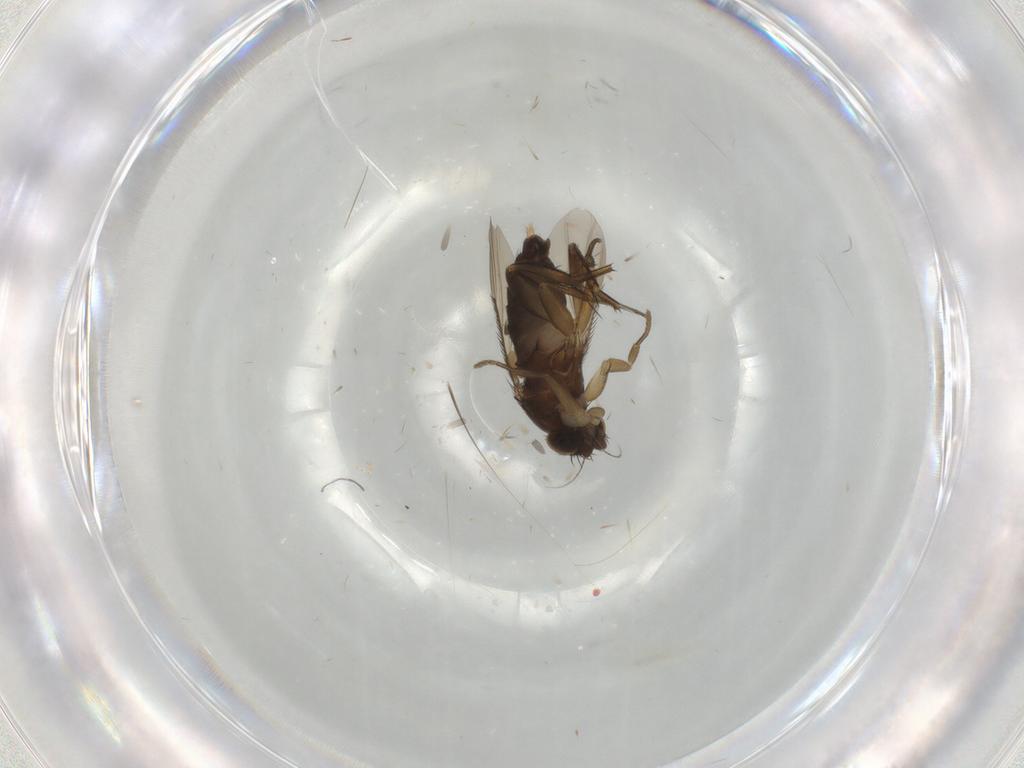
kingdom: Animalia
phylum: Arthropoda
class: Insecta
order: Diptera
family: Phoridae
